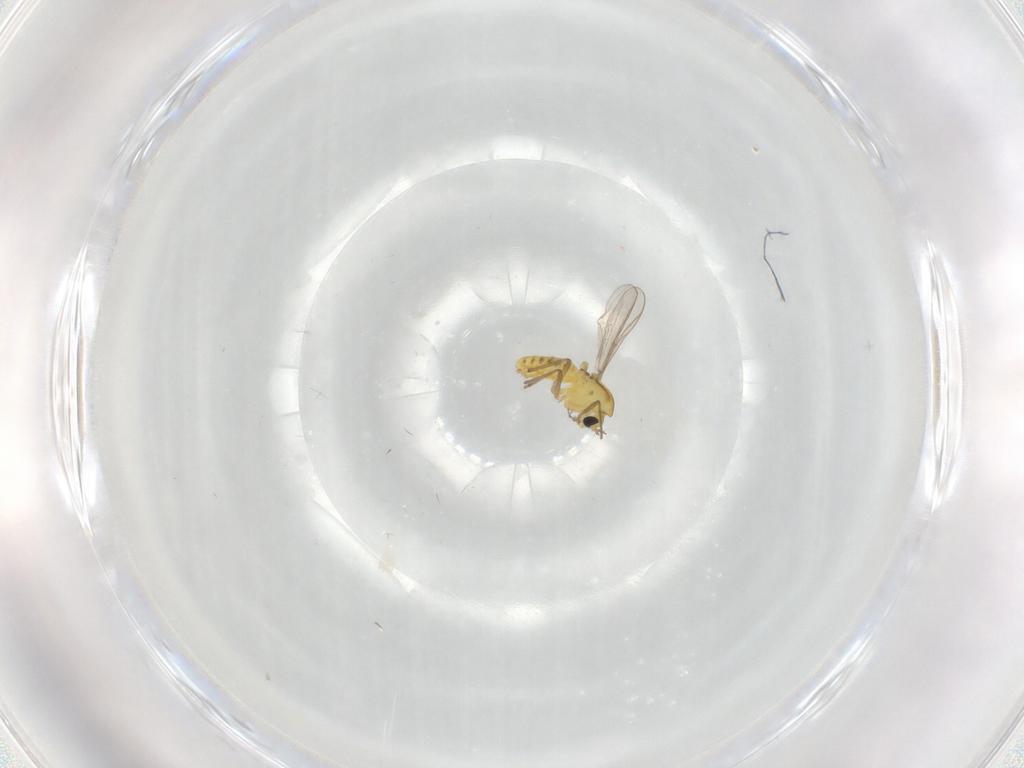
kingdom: Animalia
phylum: Arthropoda
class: Insecta
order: Diptera
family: Chironomidae
